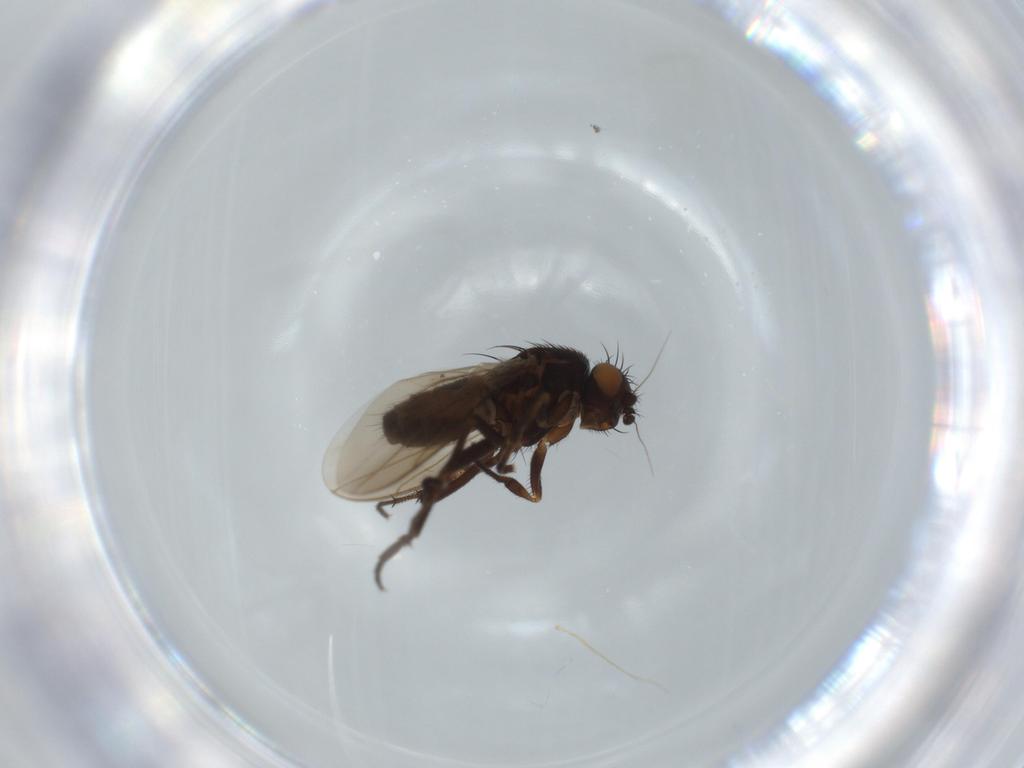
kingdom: Animalia
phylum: Arthropoda
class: Insecta
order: Diptera
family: Sphaeroceridae
